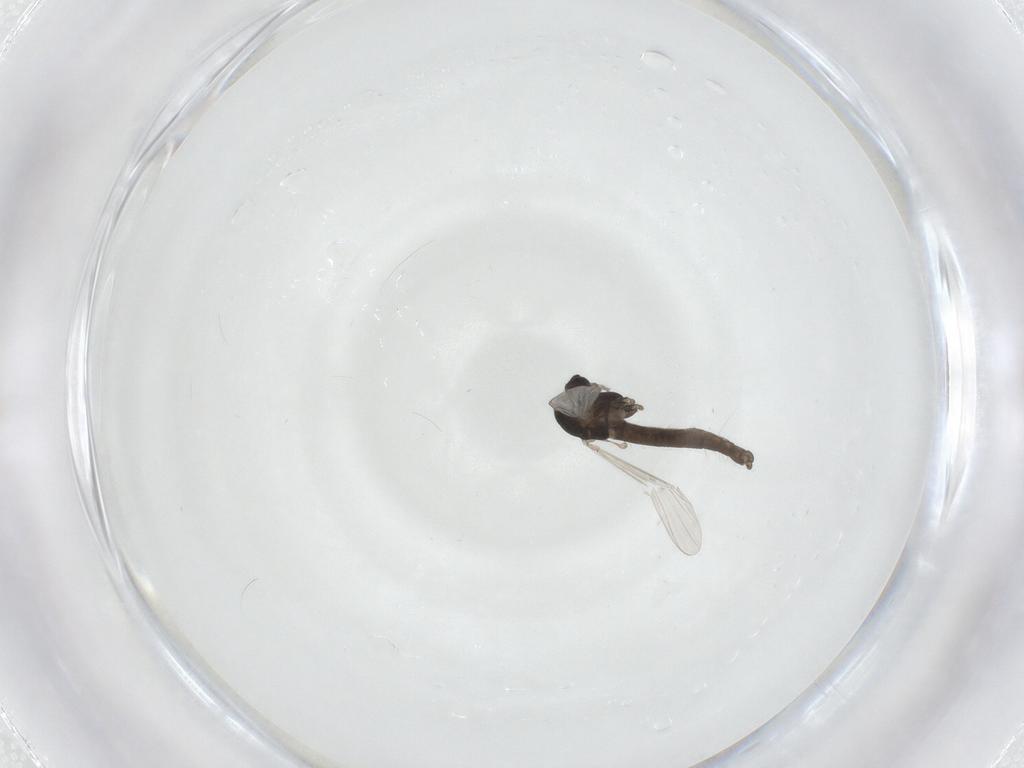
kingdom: Animalia
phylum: Arthropoda
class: Insecta
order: Diptera
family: Chironomidae
